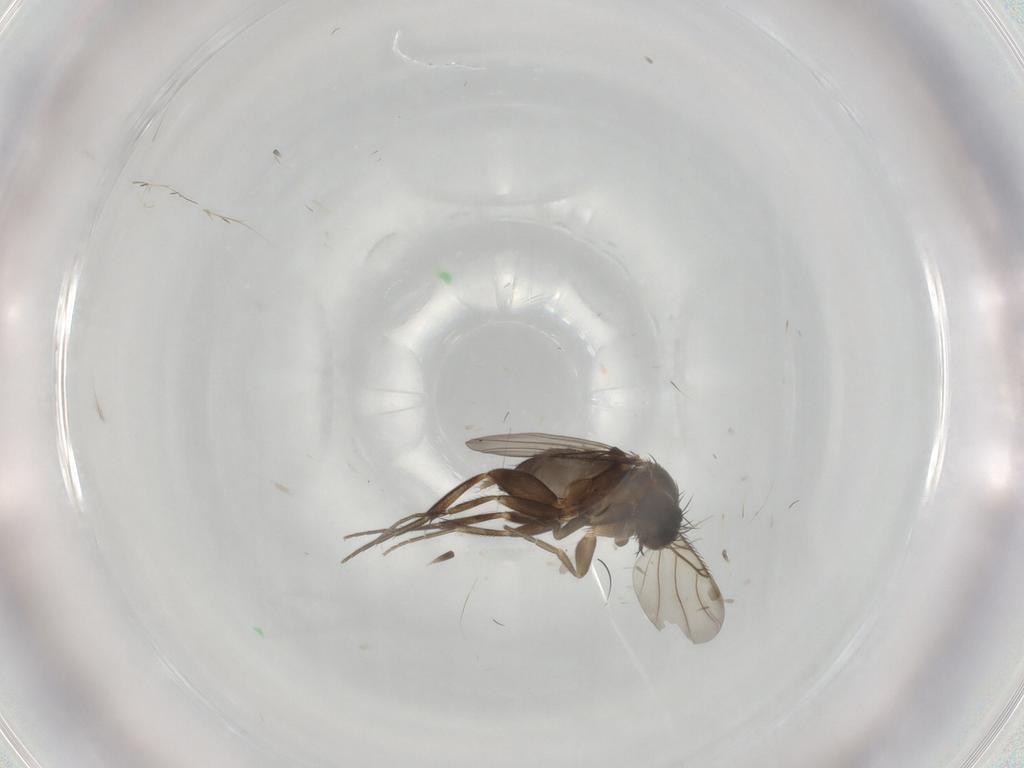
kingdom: Animalia
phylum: Arthropoda
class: Insecta
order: Diptera
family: Phoridae
